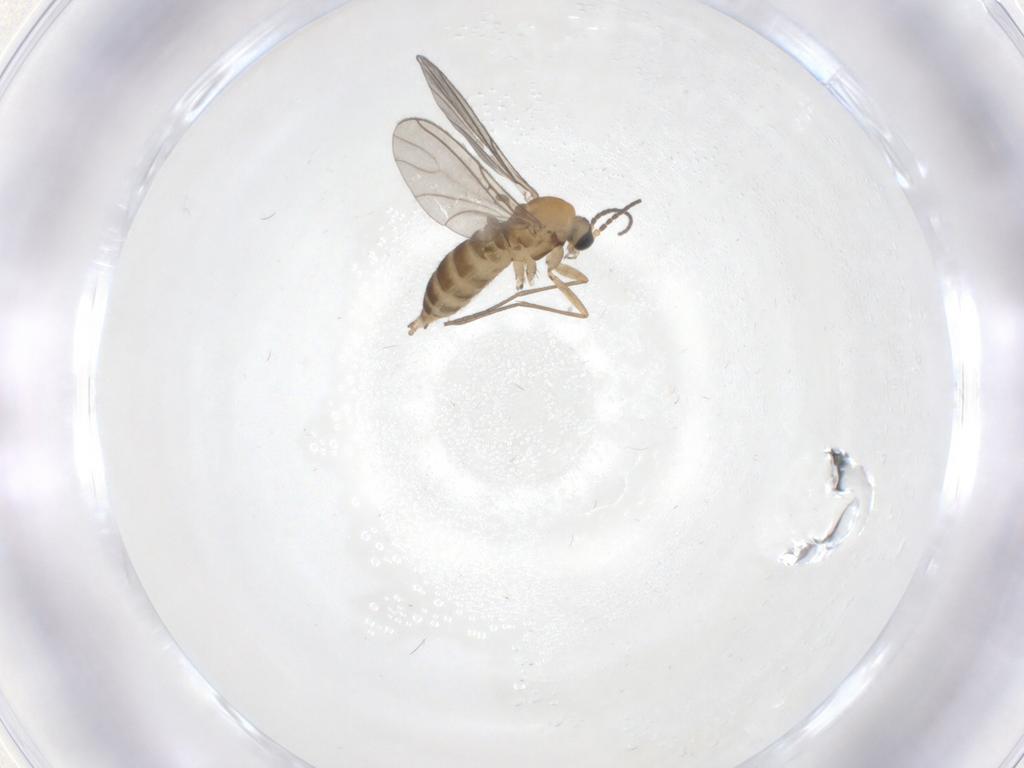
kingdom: Animalia
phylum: Arthropoda
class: Insecta
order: Diptera
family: Sciaridae
